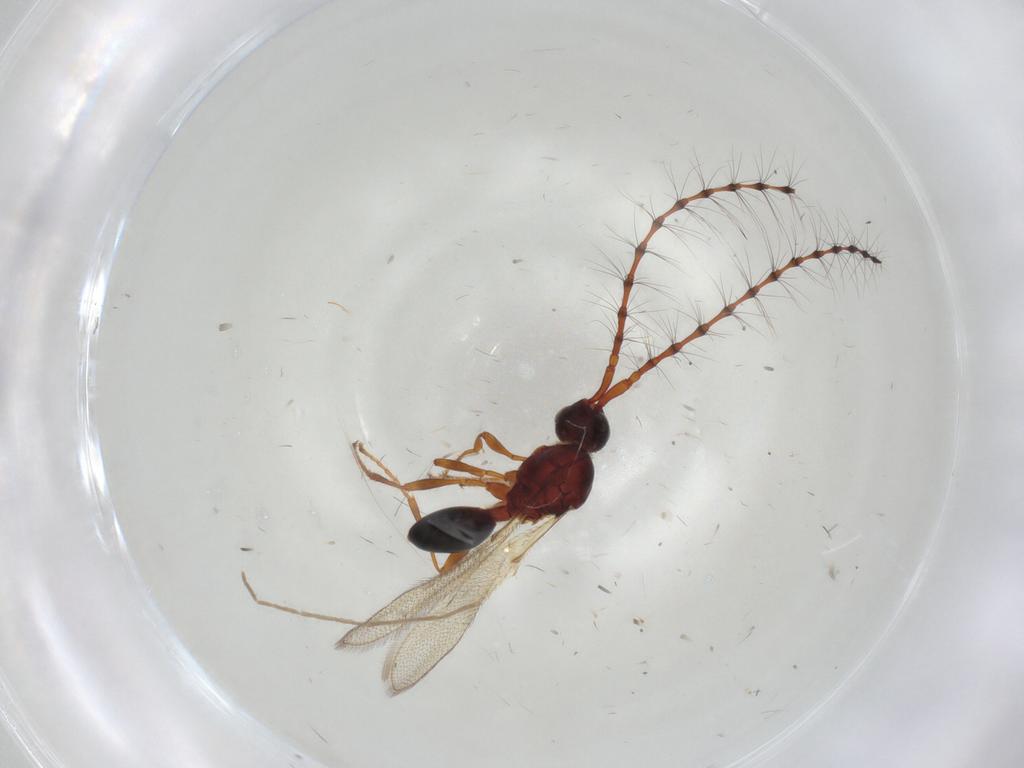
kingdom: Animalia
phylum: Arthropoda
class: Insecta
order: Hymenoptera
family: Diapriidae
